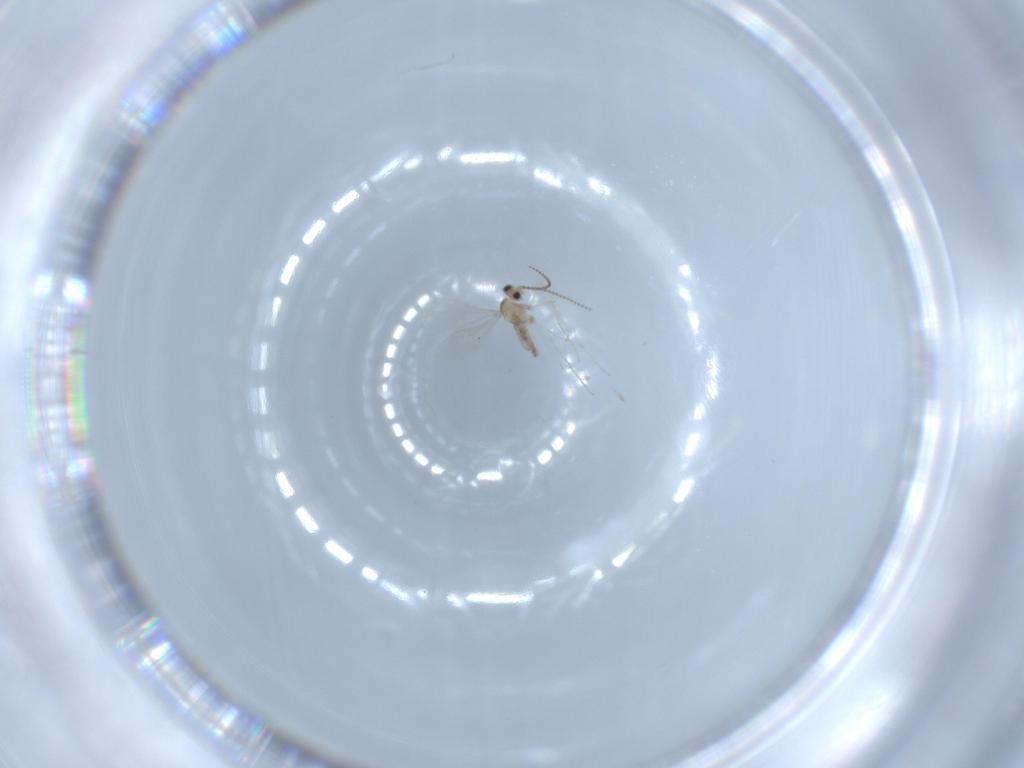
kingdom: Animalia
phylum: Arthropoda
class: Insecta
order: Diptera
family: Cecidomyiidae
